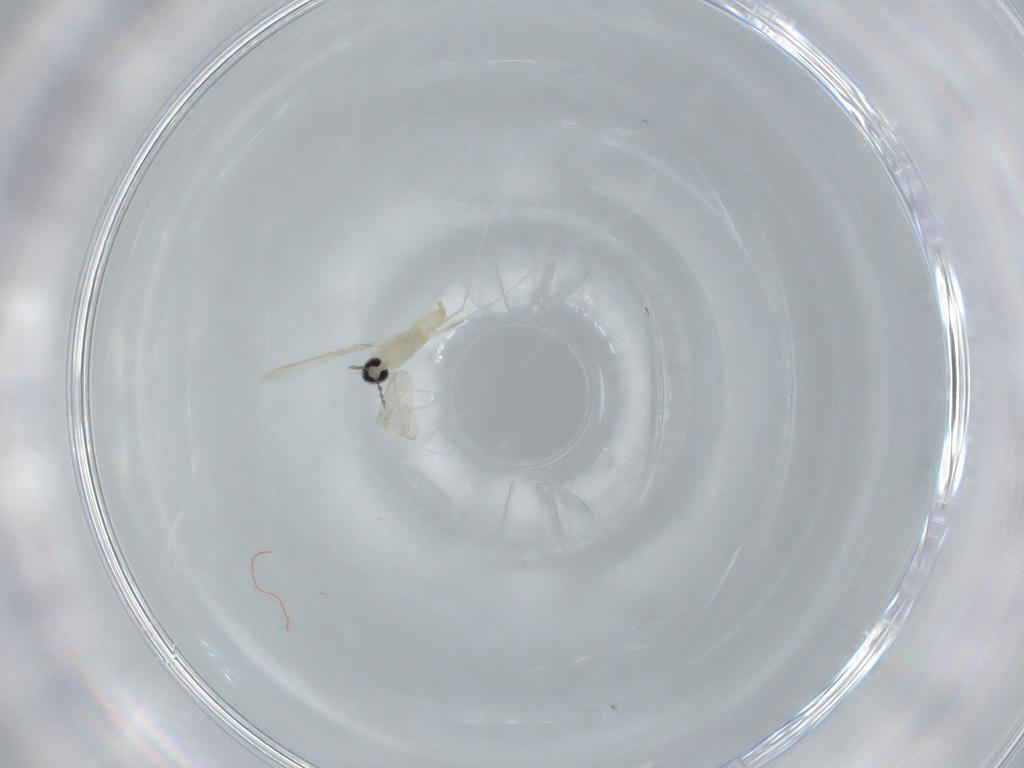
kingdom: Animalia
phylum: Arthropoda
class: Insecta
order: Diptera
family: Cecidomyiidae
